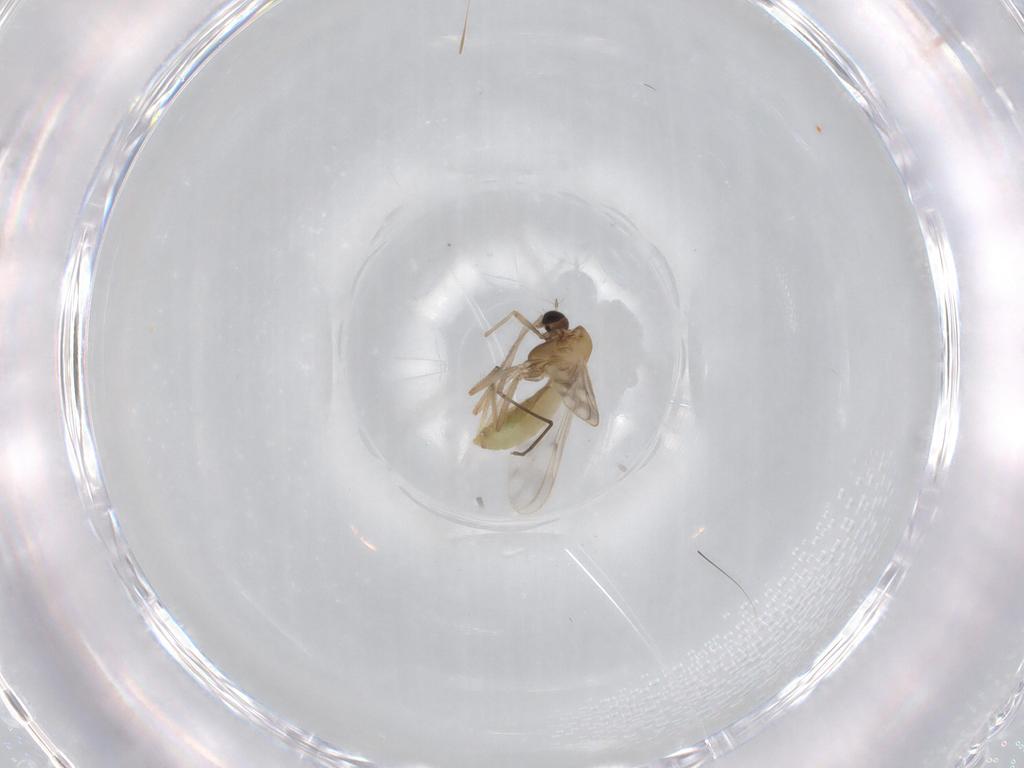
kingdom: Animalia
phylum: Arthropoda
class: Insecta
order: Diptera
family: Chironomidae
